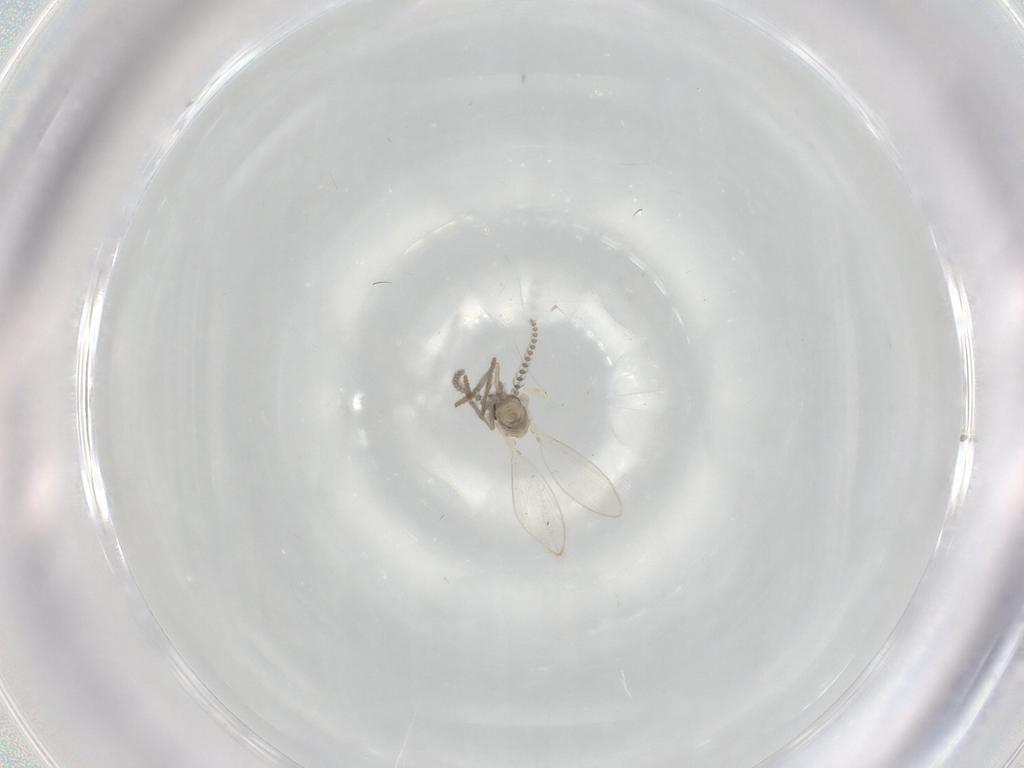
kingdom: Animalia
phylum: Arthropoda
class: Insecta
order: Diptera
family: Psychodidae
